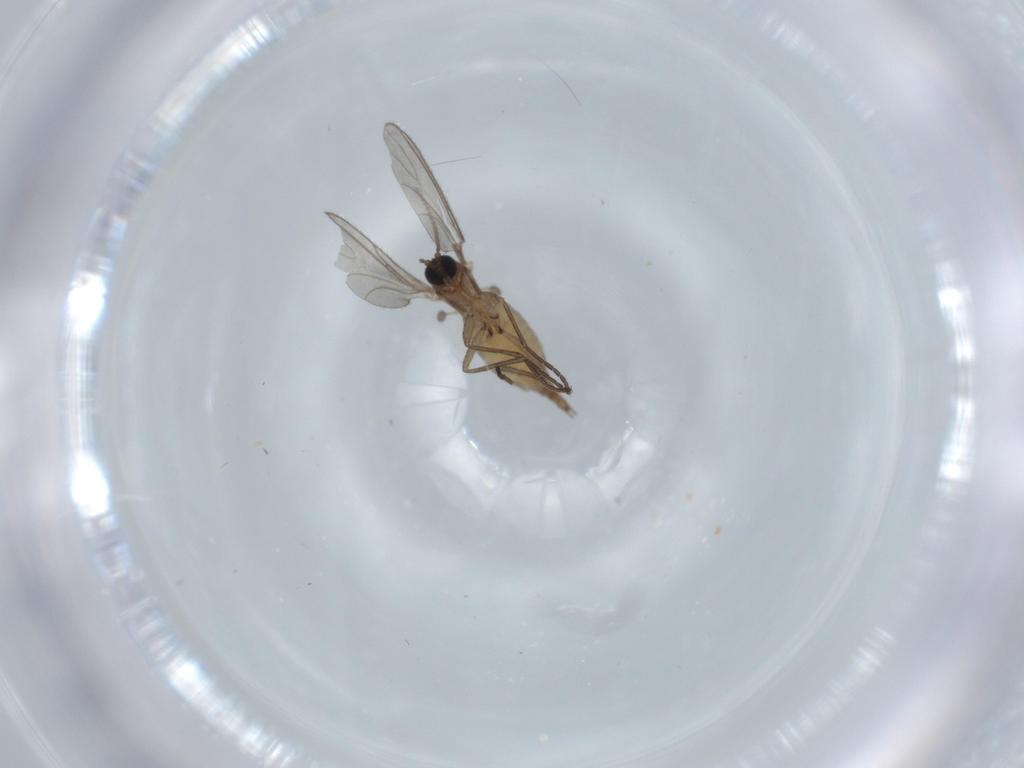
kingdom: Animalia
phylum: Arthropoda
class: Insecta
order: Diptera
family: Sciaridae
